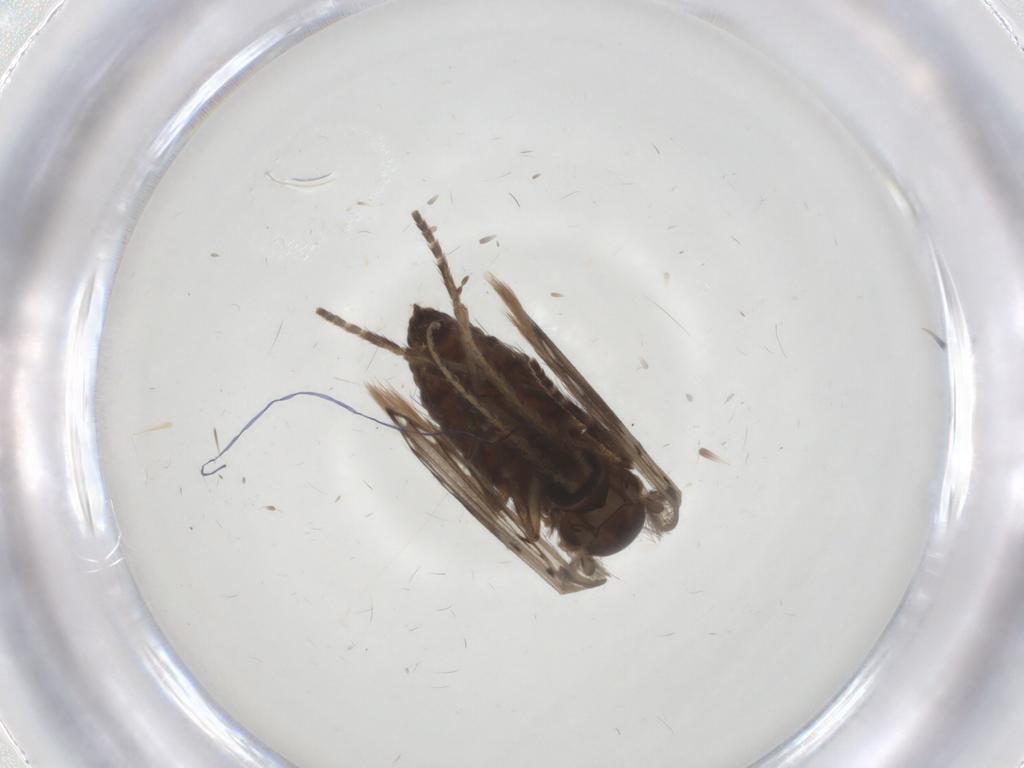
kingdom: Animalia
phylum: Arthropoda
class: Insecta
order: Diptera
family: Psychodidae
